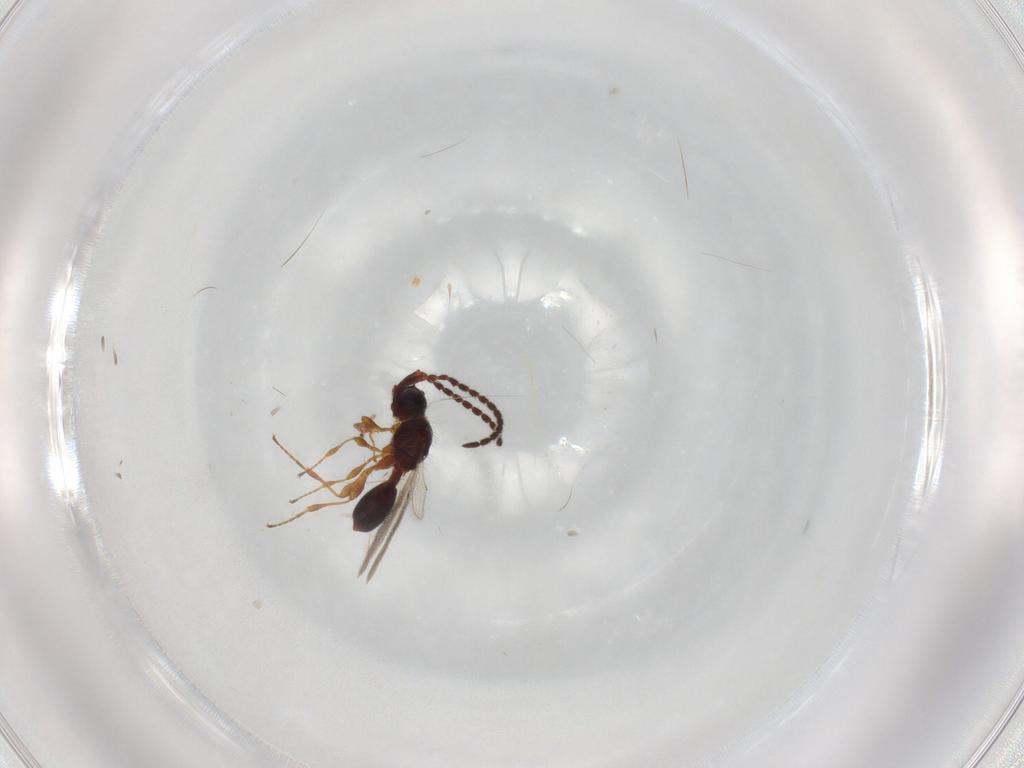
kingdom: Animalia
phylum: Arthropoda
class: Insecta
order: Hymenoptera
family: Diapriidae
